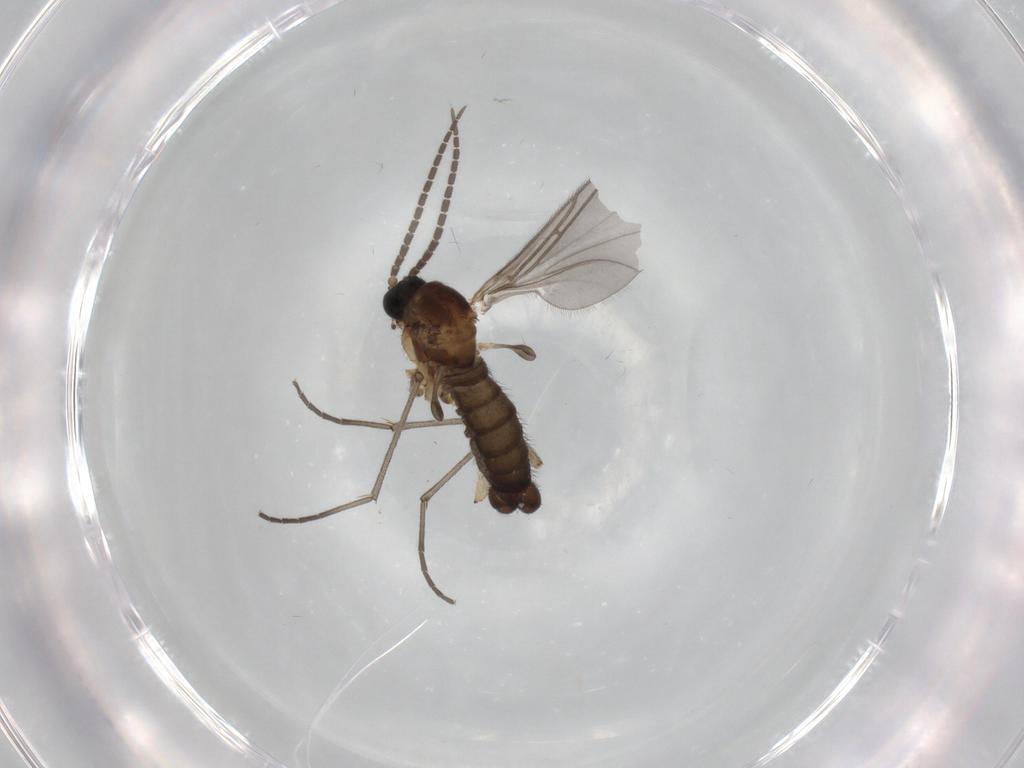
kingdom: Animalia
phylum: Arthropoda
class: Insecta
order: Diptera
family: Sciaridae
